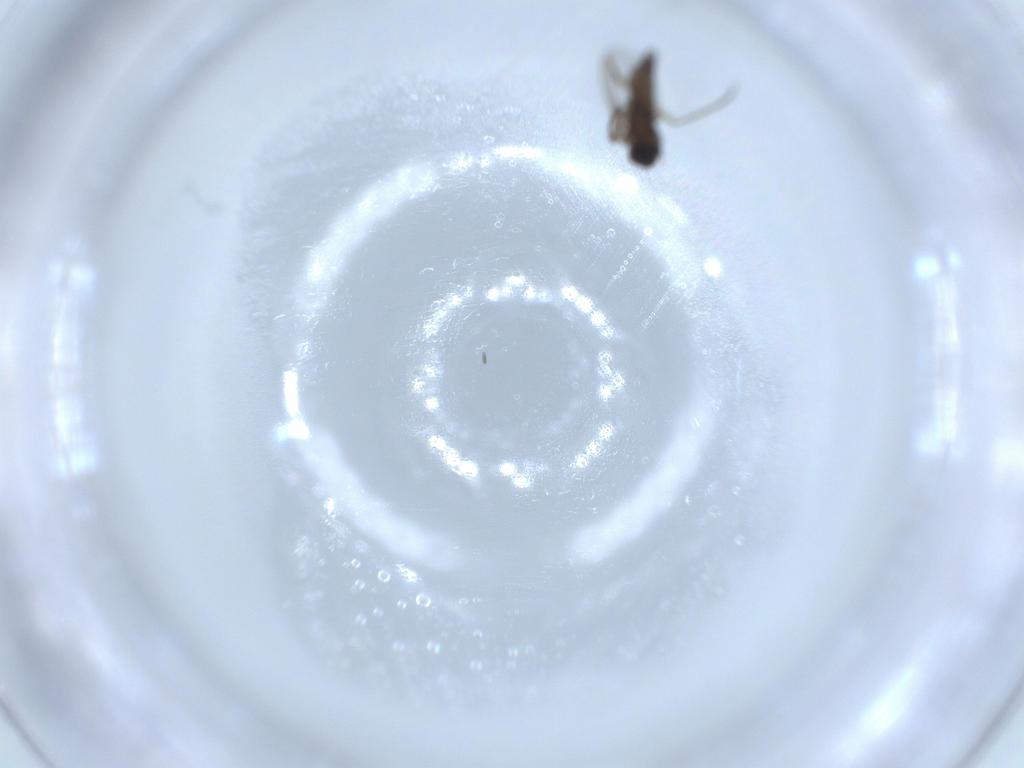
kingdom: Animalia
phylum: Arthropoda
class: Insecta
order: Diptera
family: Sciaridae
